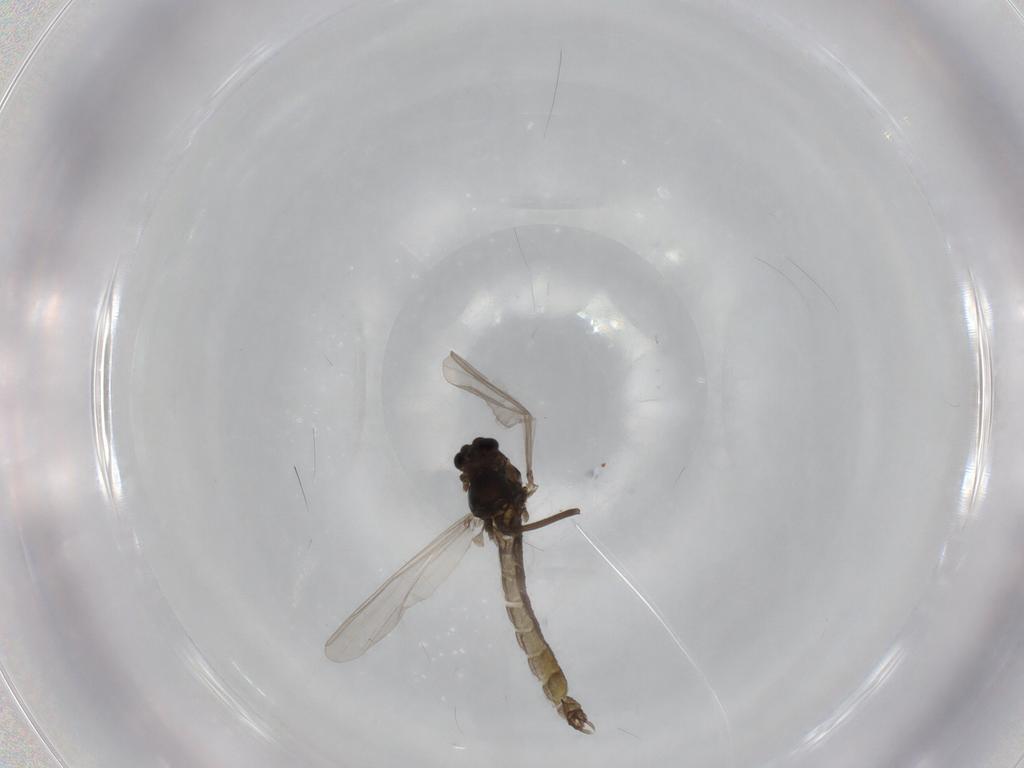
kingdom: Animalia
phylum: Arthropoda
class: Insecta
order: Diptera
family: Chironomidae
